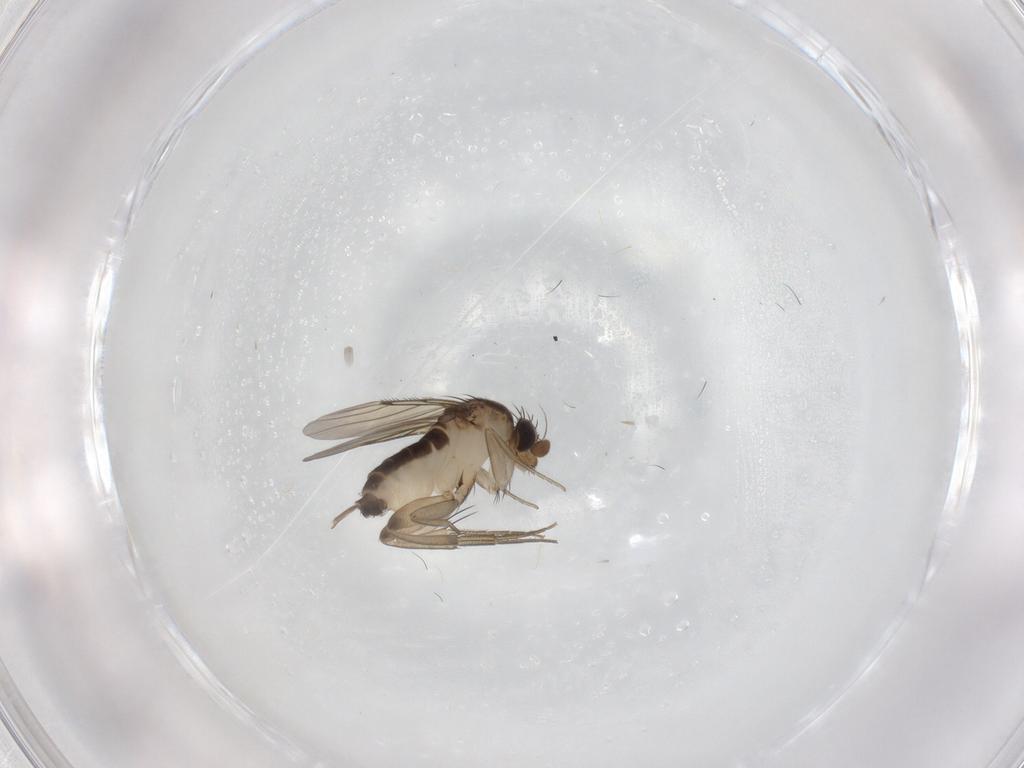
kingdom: Animalia
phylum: Arthropoda
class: Insecta
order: Diptera
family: Phoridae
